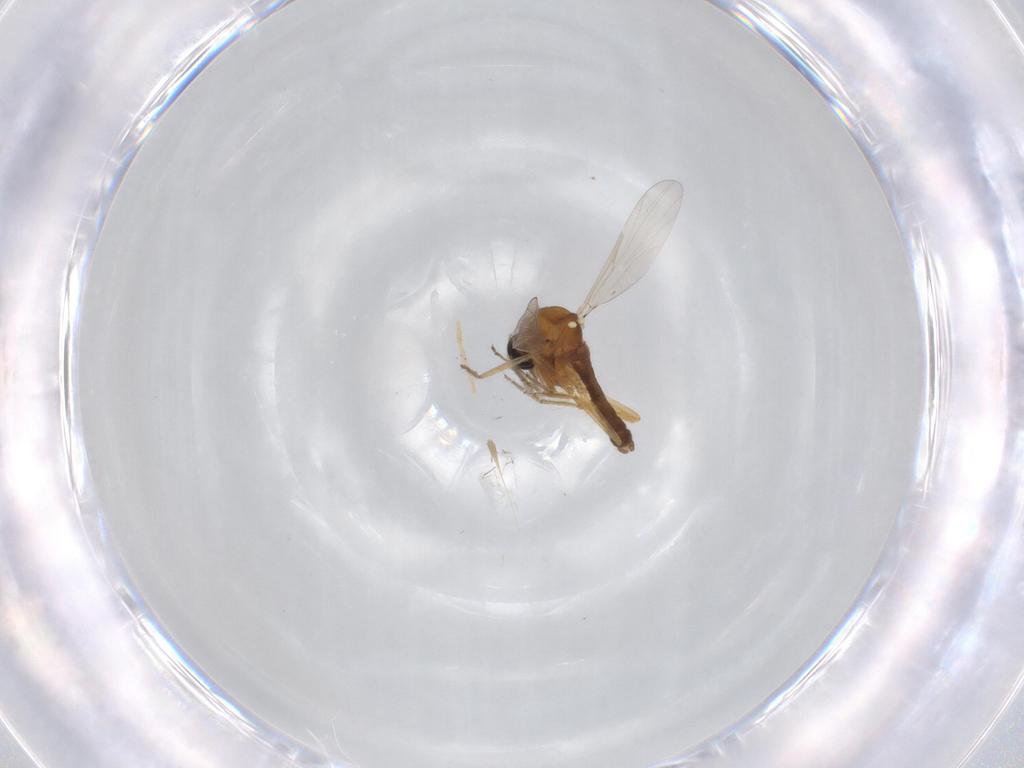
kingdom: Animalia
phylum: Arthropoda
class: Insecta
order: Diptera
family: Ceratopogonidae
